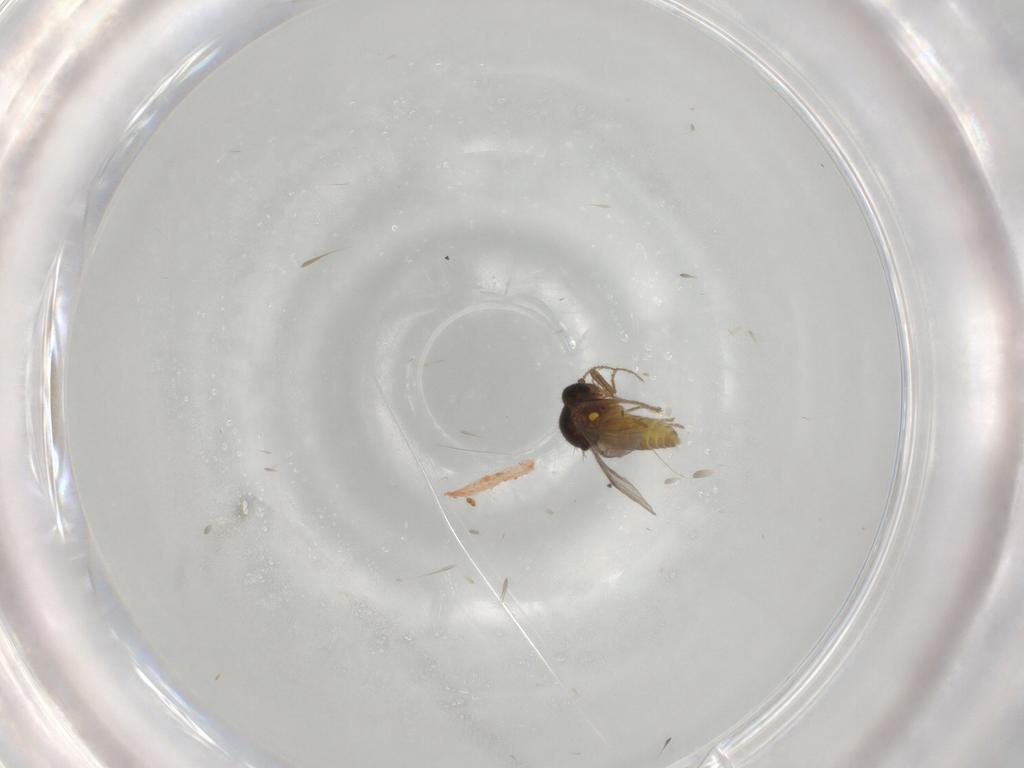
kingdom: Animalia
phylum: Arthropoda
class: Insecta
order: Diptera
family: Ceratopogonidae
